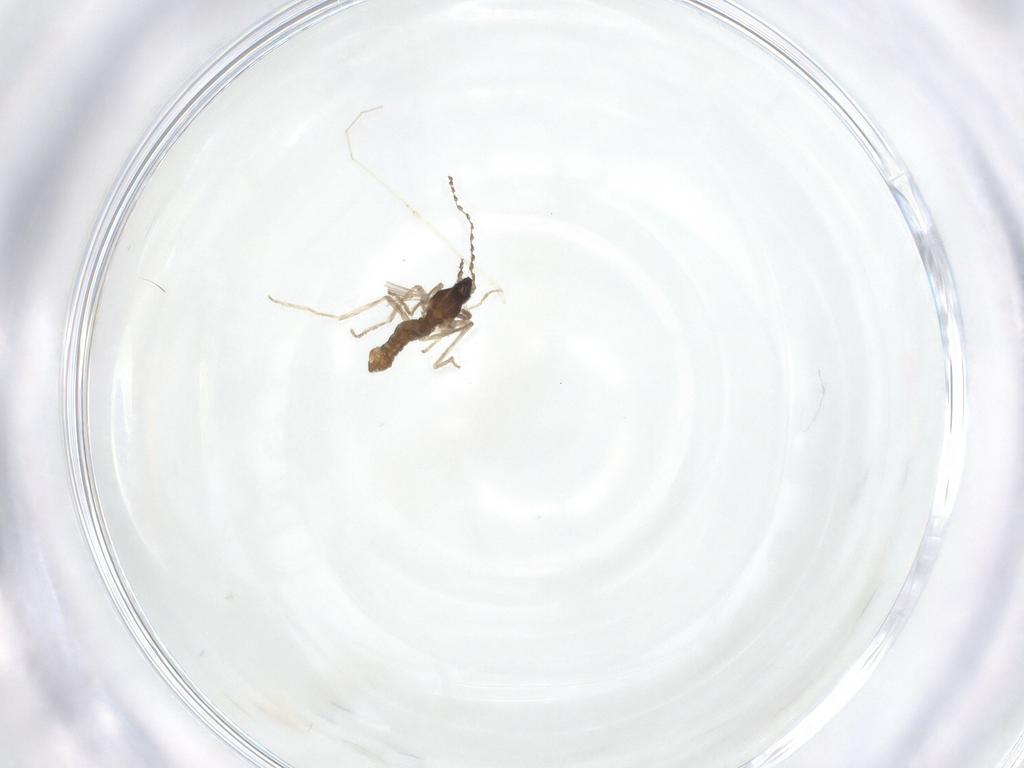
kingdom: Animalia
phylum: Arthropoda
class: Insecta
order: Diptera
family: Cecidomyiidae
